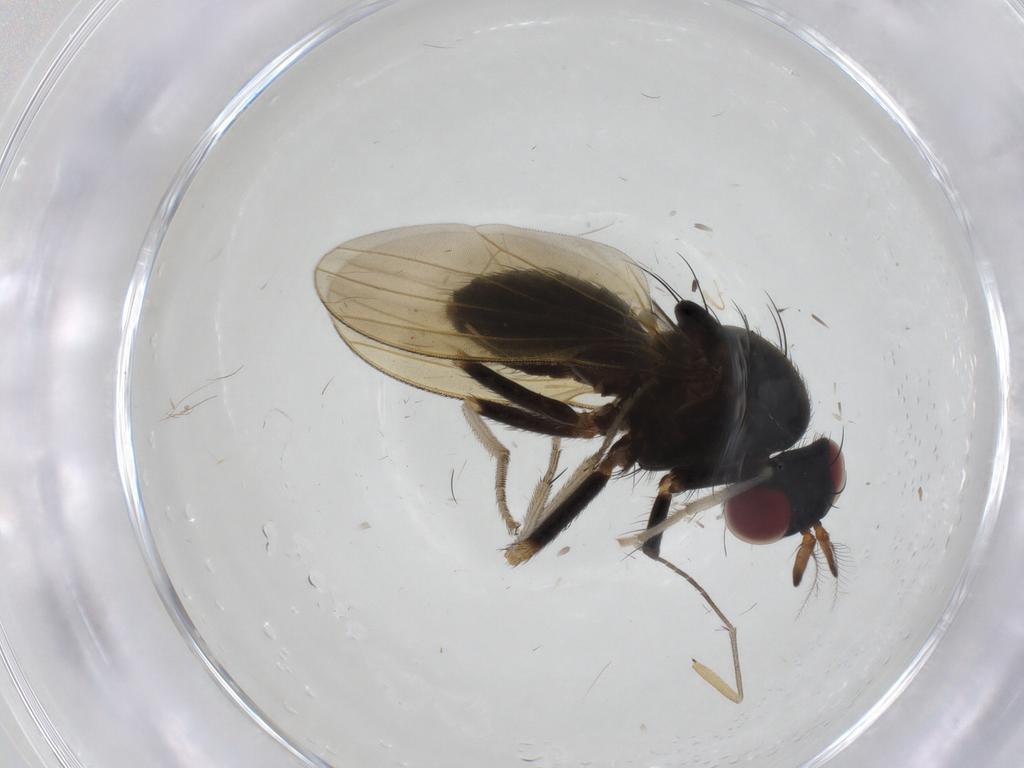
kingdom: Animalia
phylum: Arthropoda
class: Insecta
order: Diptera
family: Sciaridae
